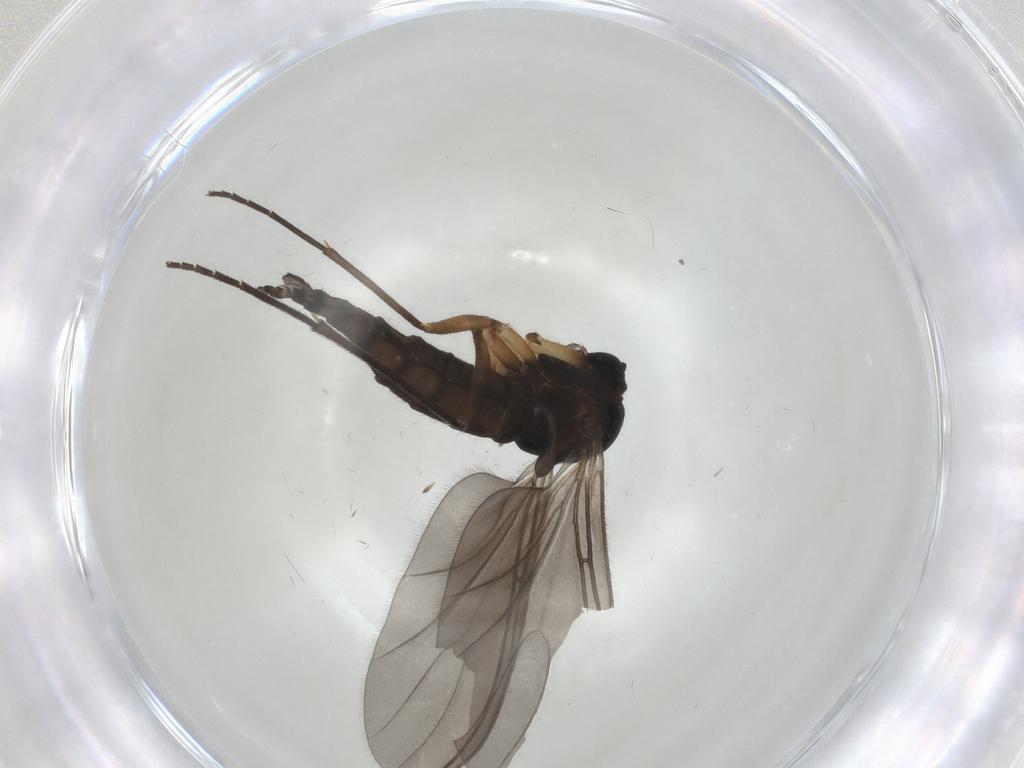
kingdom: Animalia
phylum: Arthropoda
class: Insecta
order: Diptera
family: Sciaridae
